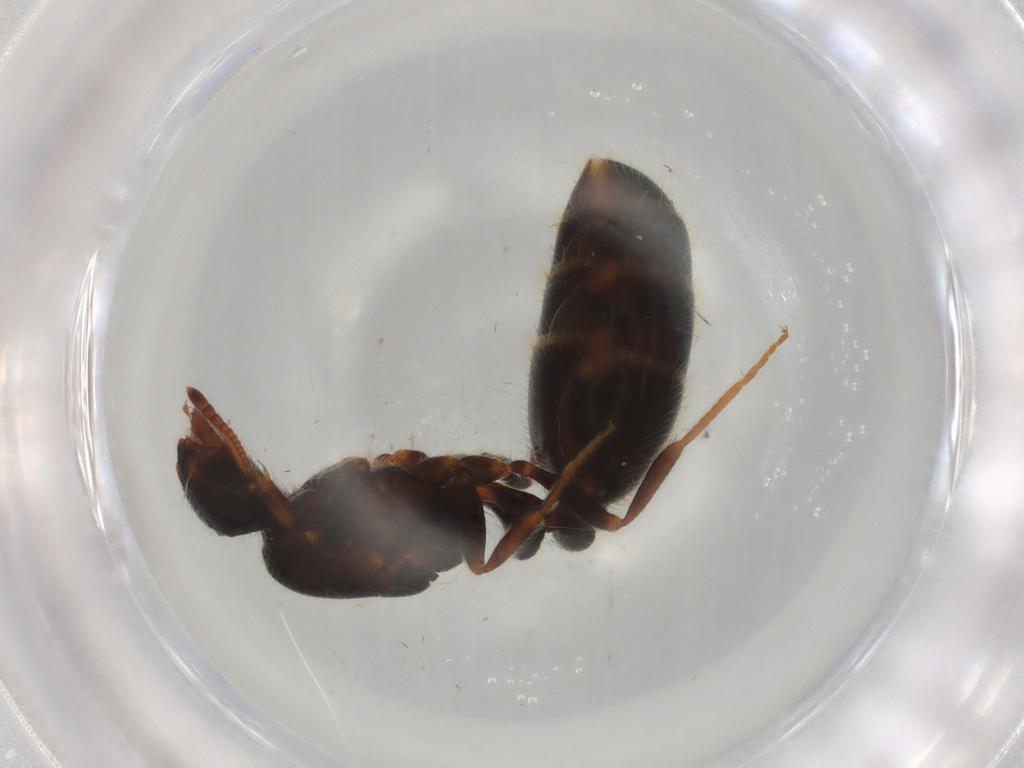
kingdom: Animalia
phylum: Arthropoda
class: Insecta
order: Hymenoptera
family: Formicidae
